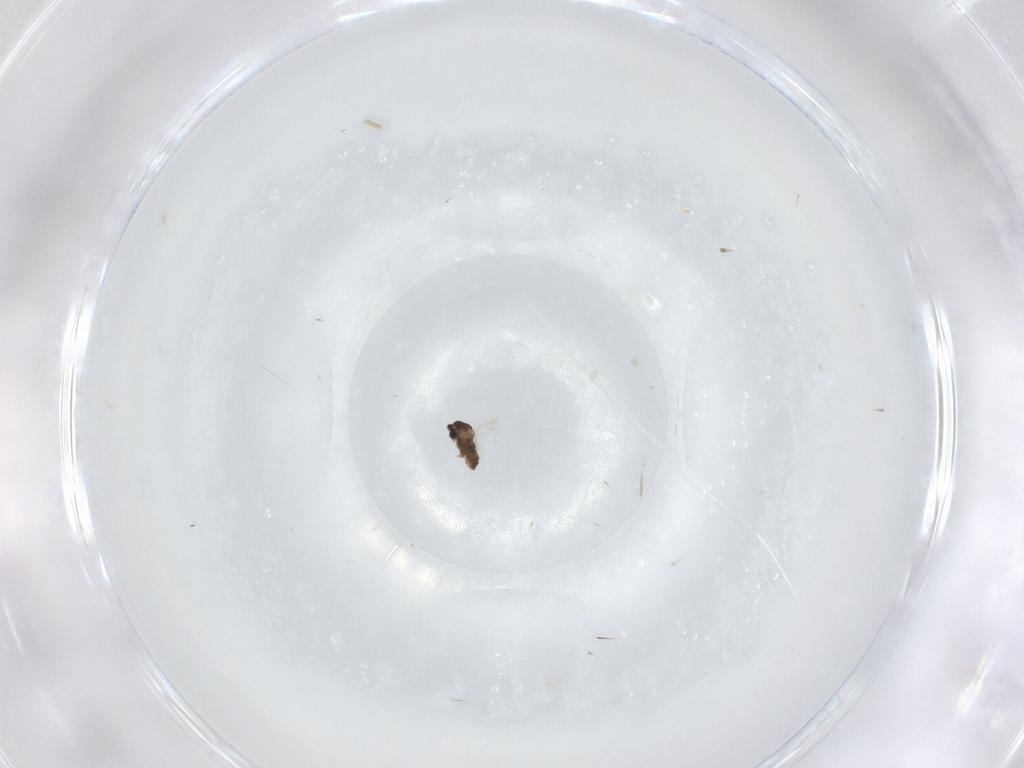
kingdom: Animalia
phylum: Arthropoda
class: Insecta
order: Diptera
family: Cecidomyiidae
